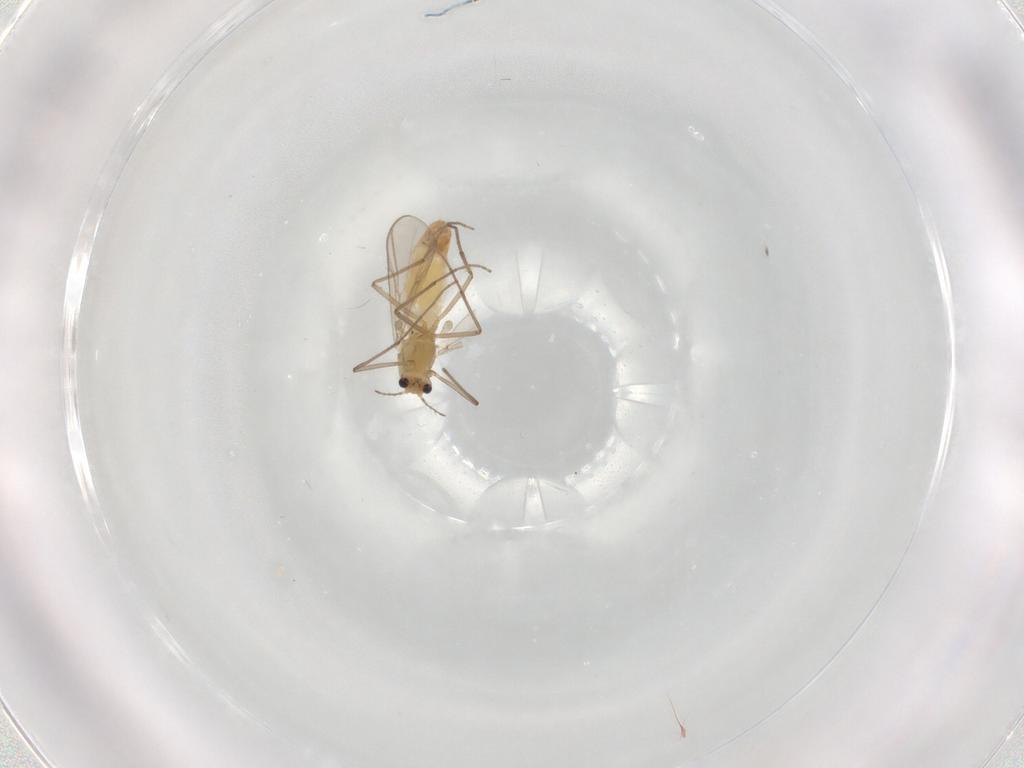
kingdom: Animalia
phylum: Arthropoda
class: Insecta
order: Diptera
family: Chironomidae
